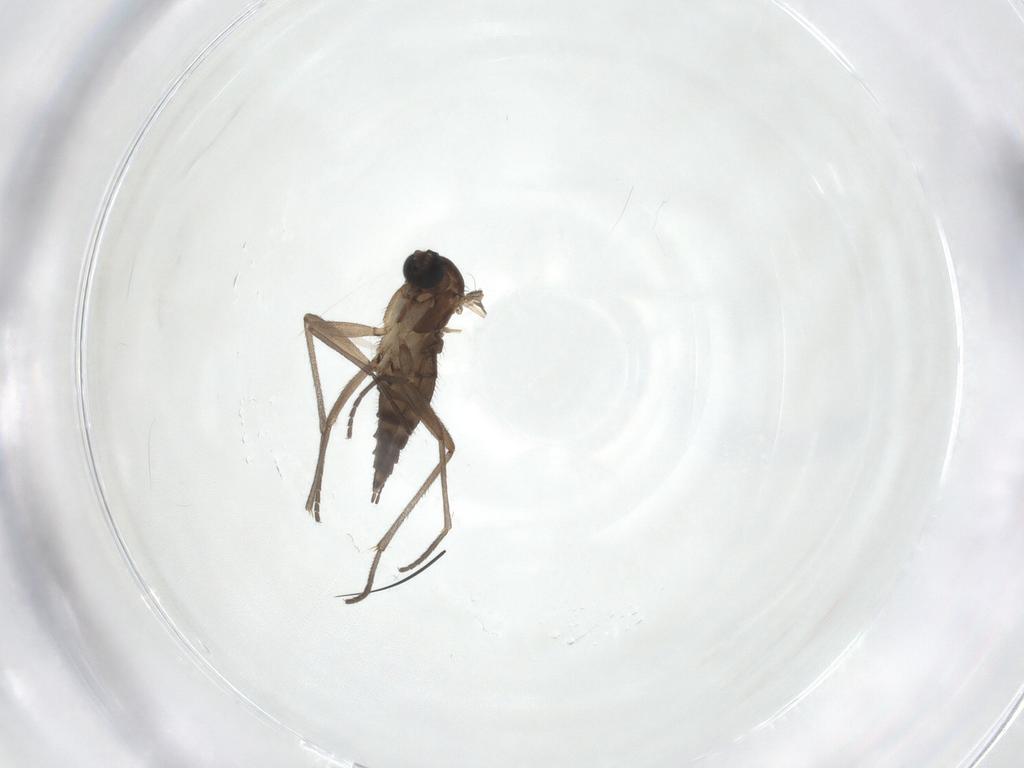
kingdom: Animalia
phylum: Arthropoda
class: Insecta
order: Diptera
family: Sciaridae
